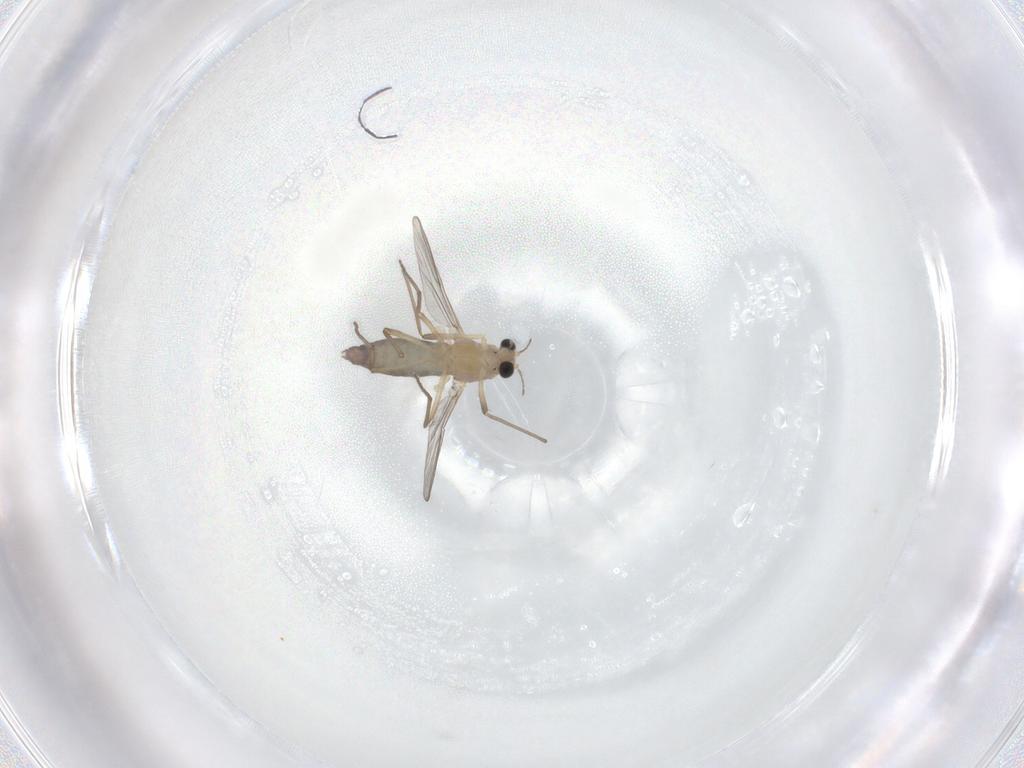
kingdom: Animalia
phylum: Arthropoda
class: Insecta
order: Diptera
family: Chironomidae
